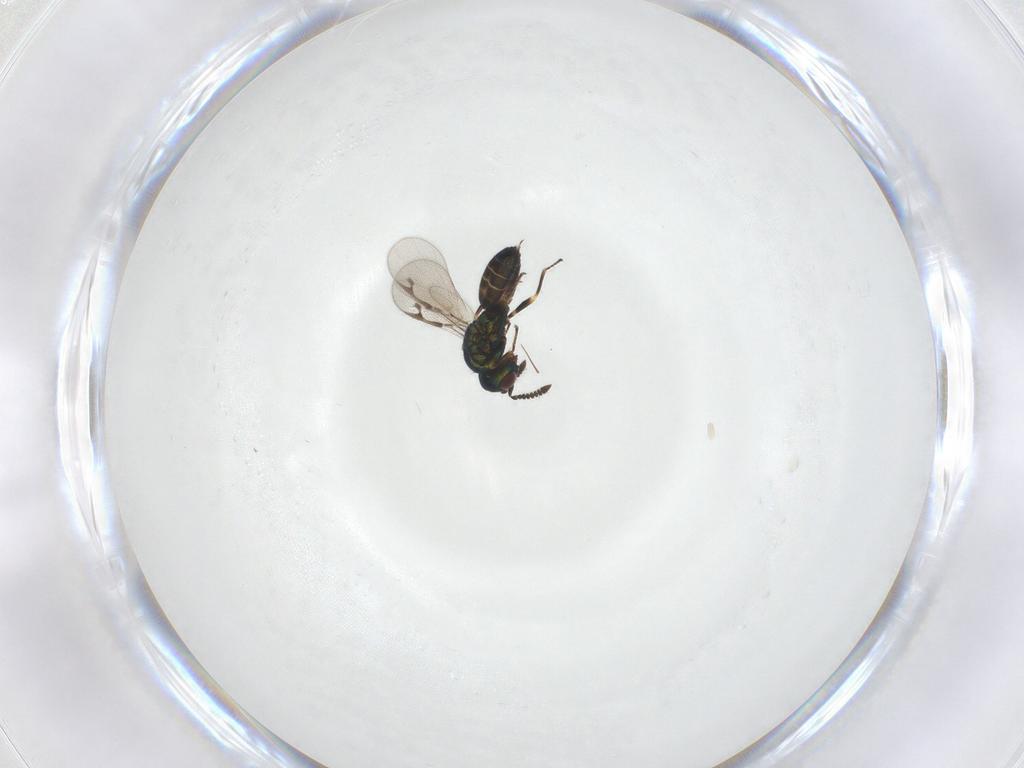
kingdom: Animalia
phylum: Arthropoda
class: Insecta
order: Hymenoptera
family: Pteromalidae
